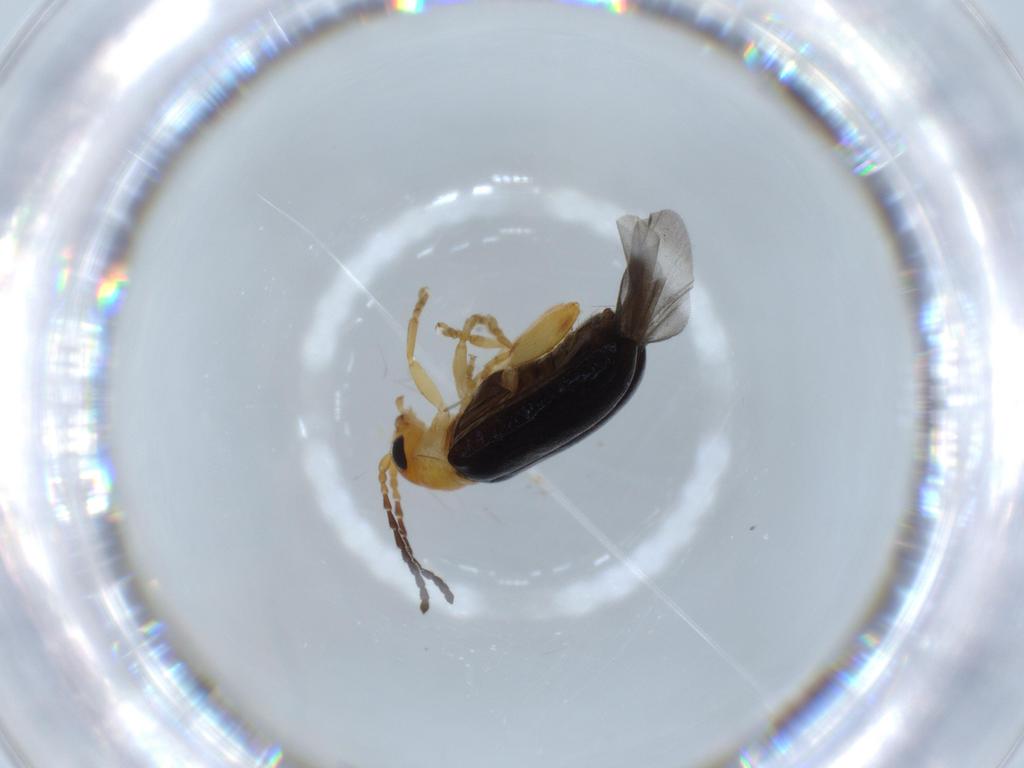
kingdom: Animalia
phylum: Arthropoda
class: Insecta
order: Coleoptera
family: Chrysomelidae
